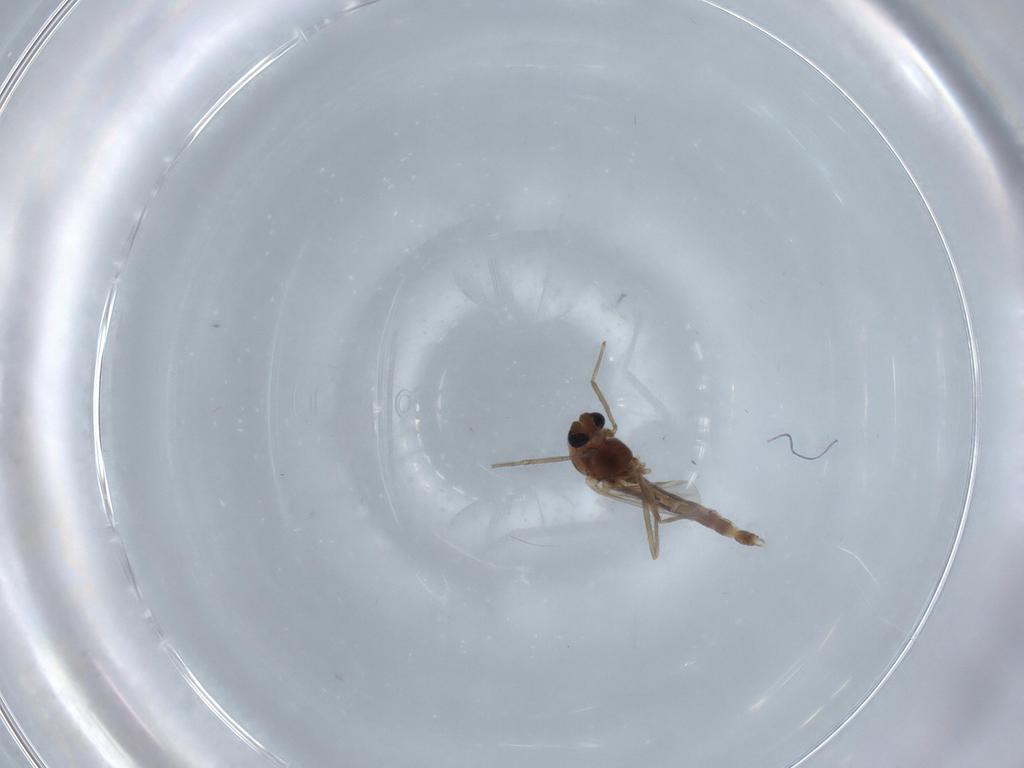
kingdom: Animalia
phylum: Arthropoda
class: Insecta
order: Diptera
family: Chironomidae
